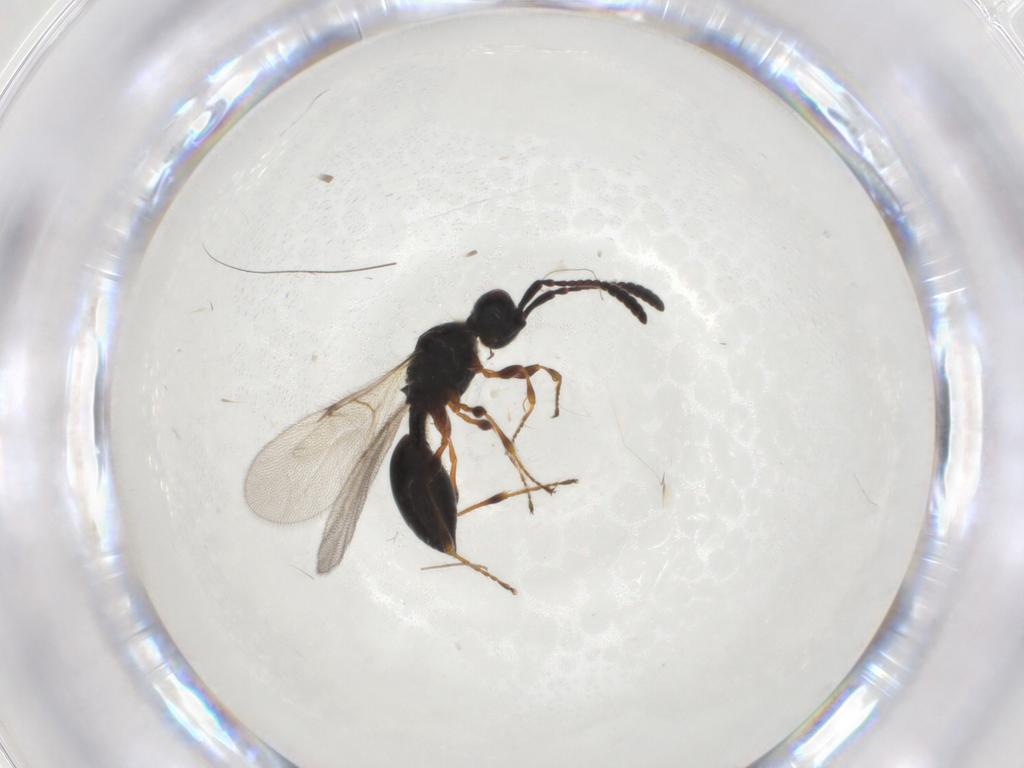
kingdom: Animalia
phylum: Arthropoda
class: Insecta
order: Hymenoptera
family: Diapriidae
